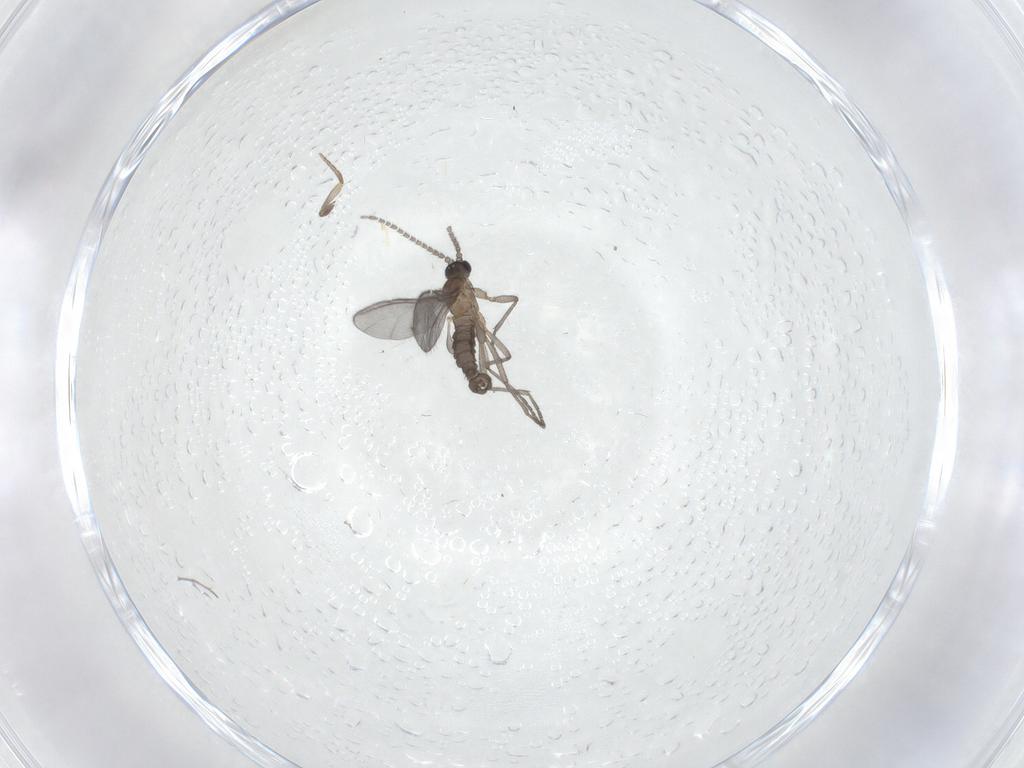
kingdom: Animalia
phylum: Arthropoda
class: Insecta
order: Diptera
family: Sciaridae
